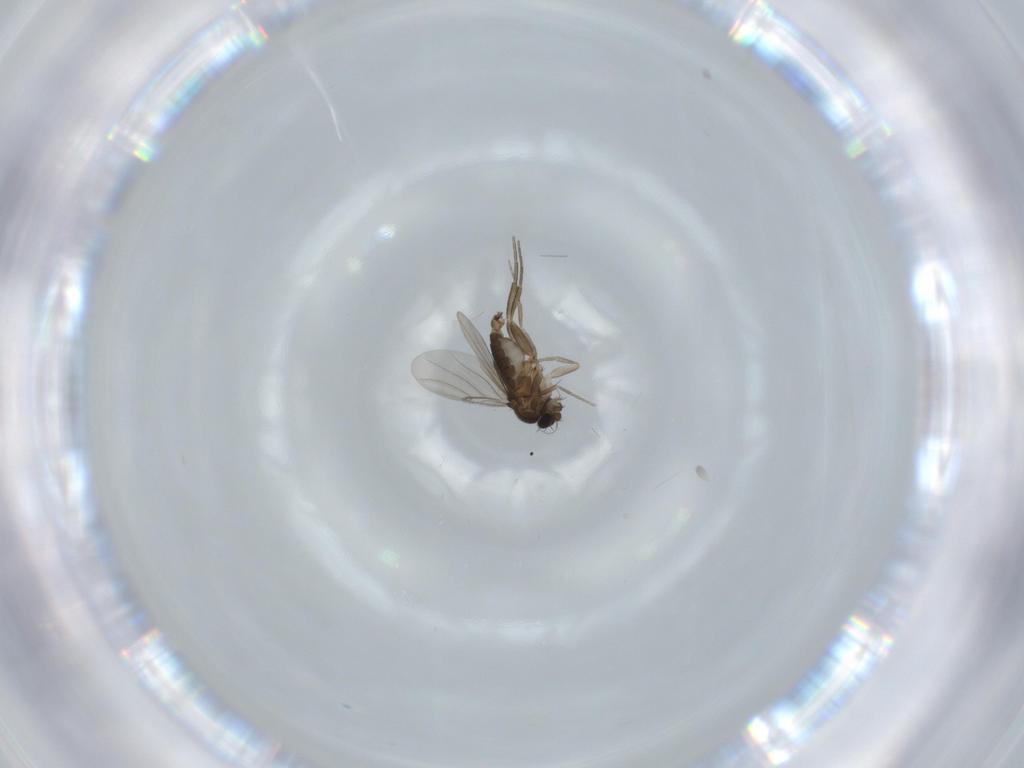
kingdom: Animalia
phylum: Arthropoda
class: Insecta
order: Diptera
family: Phoridae
